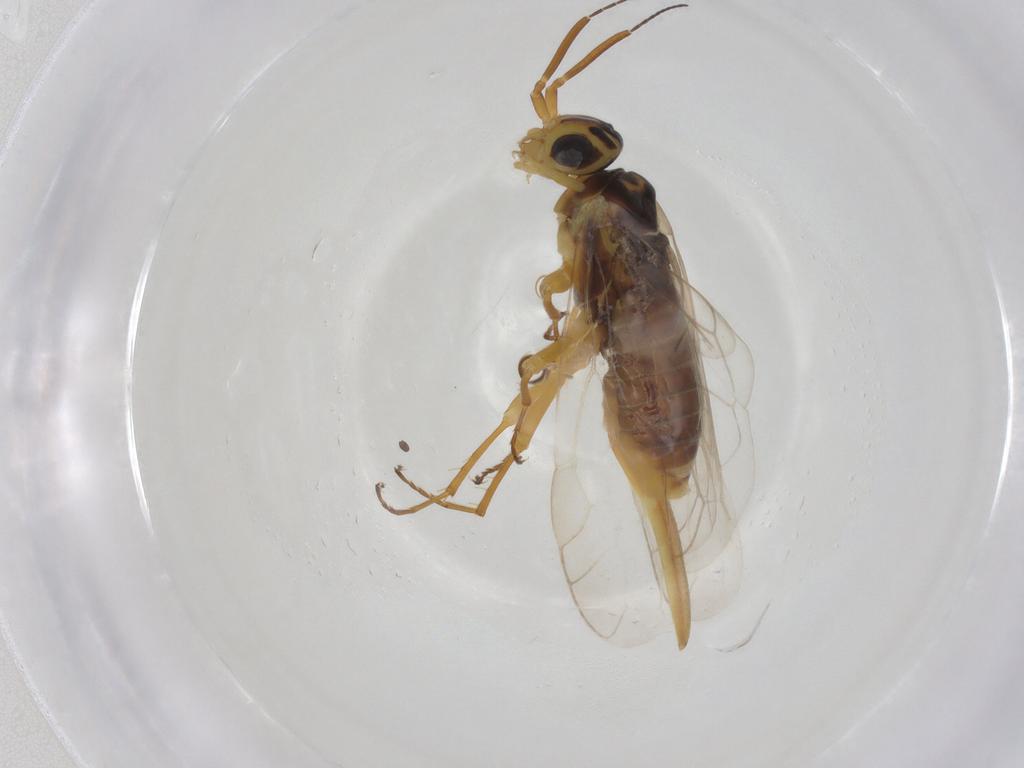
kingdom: Animalia
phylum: Arthropoda
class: Insecta
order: Hymenoptera
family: Xyelidae
